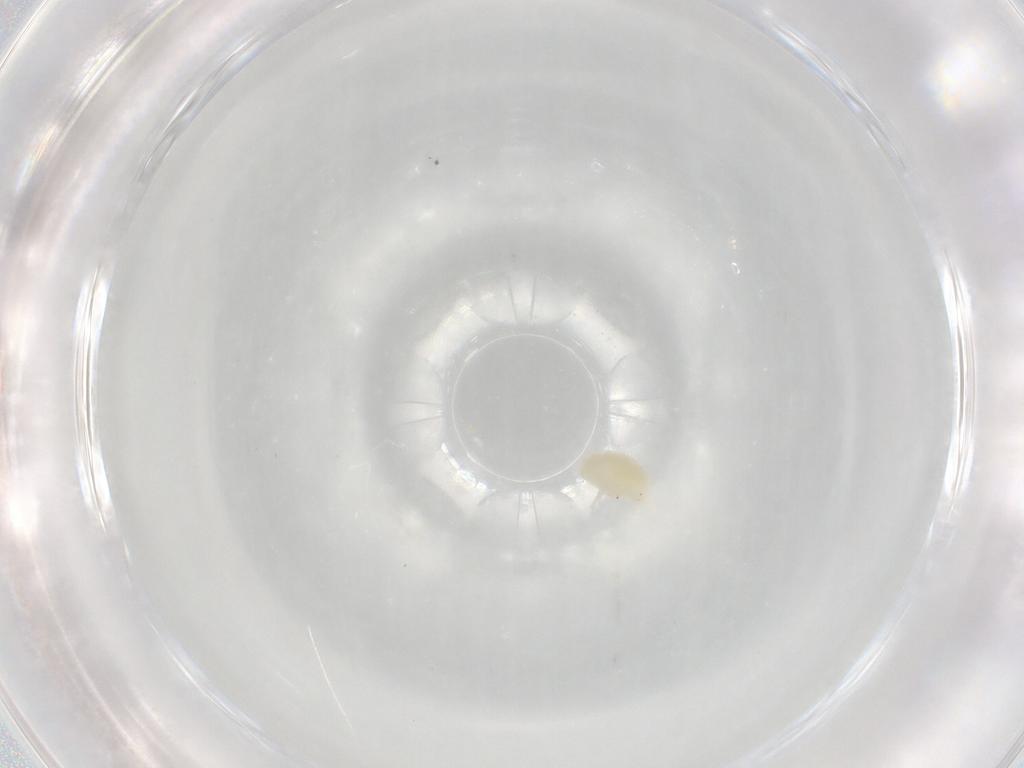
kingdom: Animalia
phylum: Arthropoda
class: Arachnida
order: Trombidiformes
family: Stigmaeidae
